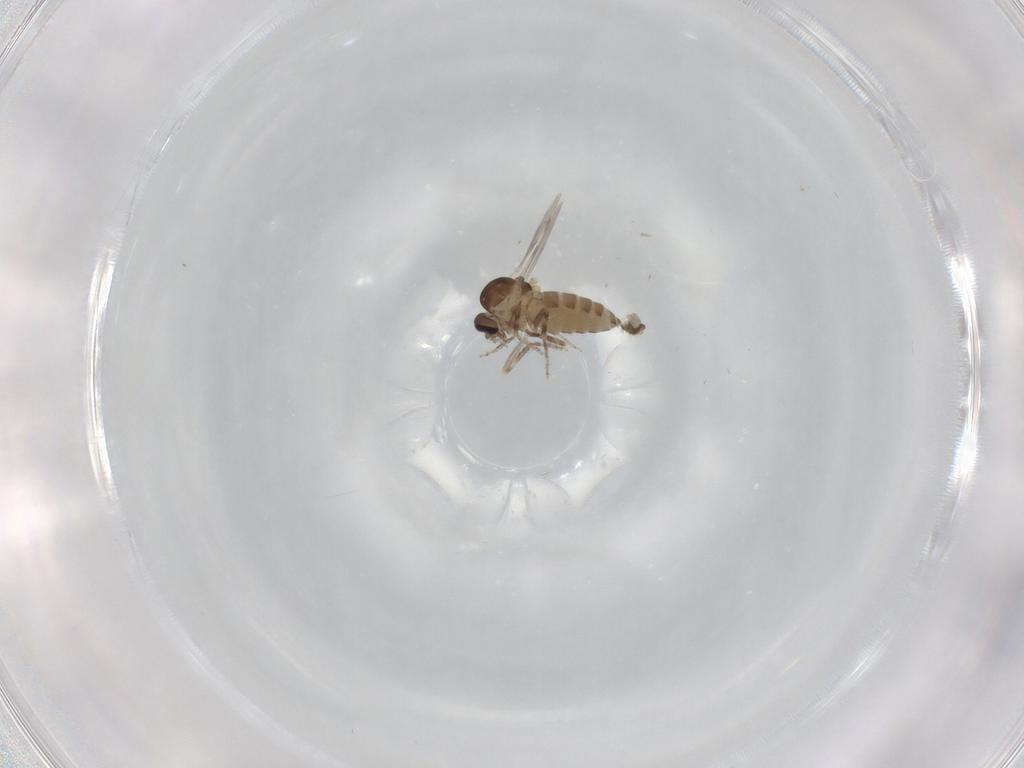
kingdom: Animalia
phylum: Arthropoda
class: Insecta
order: Diptera
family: Ceratopogonidae
